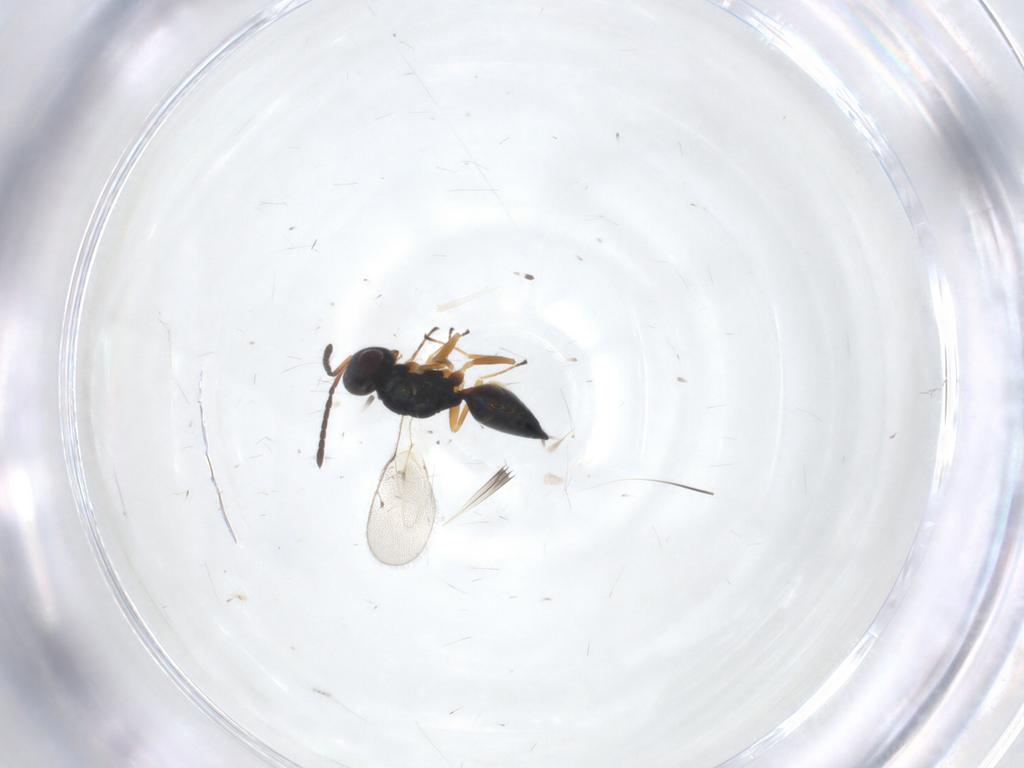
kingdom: Animalia
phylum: Arthropoda
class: Insecta
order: Hymenoptera
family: Pteromalidae
